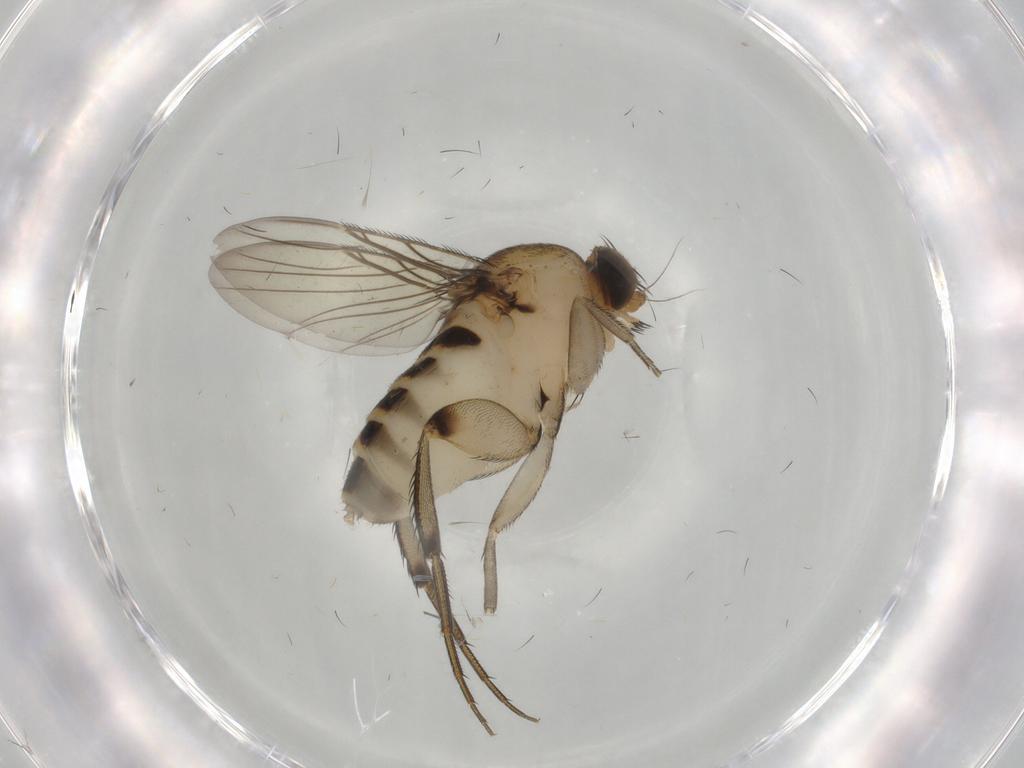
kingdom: Animalia
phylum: Arthropoda
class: Insecta
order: Diptera
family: Phoridae
